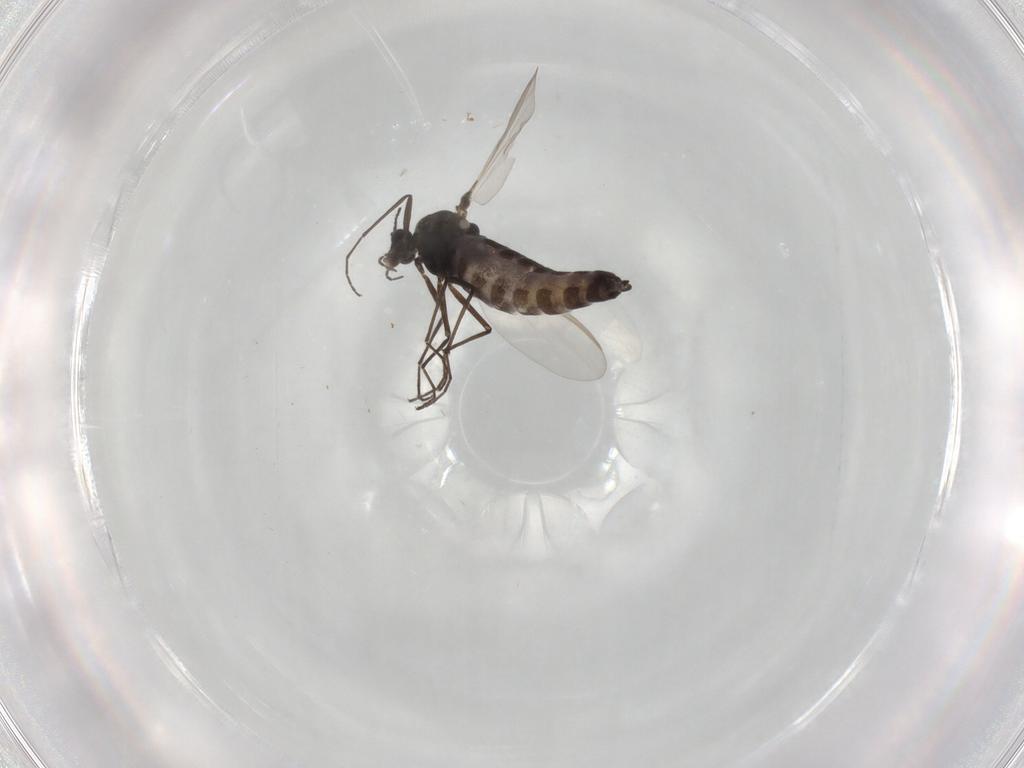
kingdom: Animalia
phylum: Arthropoda
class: Insecta
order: Diptera
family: Chironomidae
